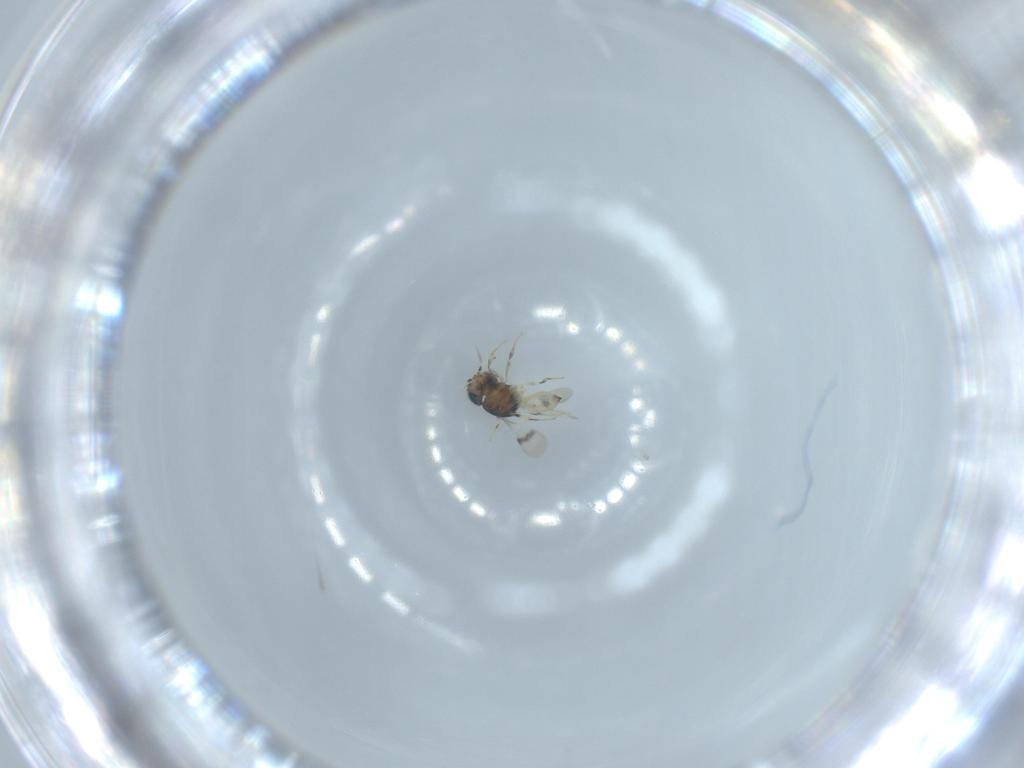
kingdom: Animalia
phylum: Arthropoda
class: Insecta
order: Hymenoptera
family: Scelionidae
